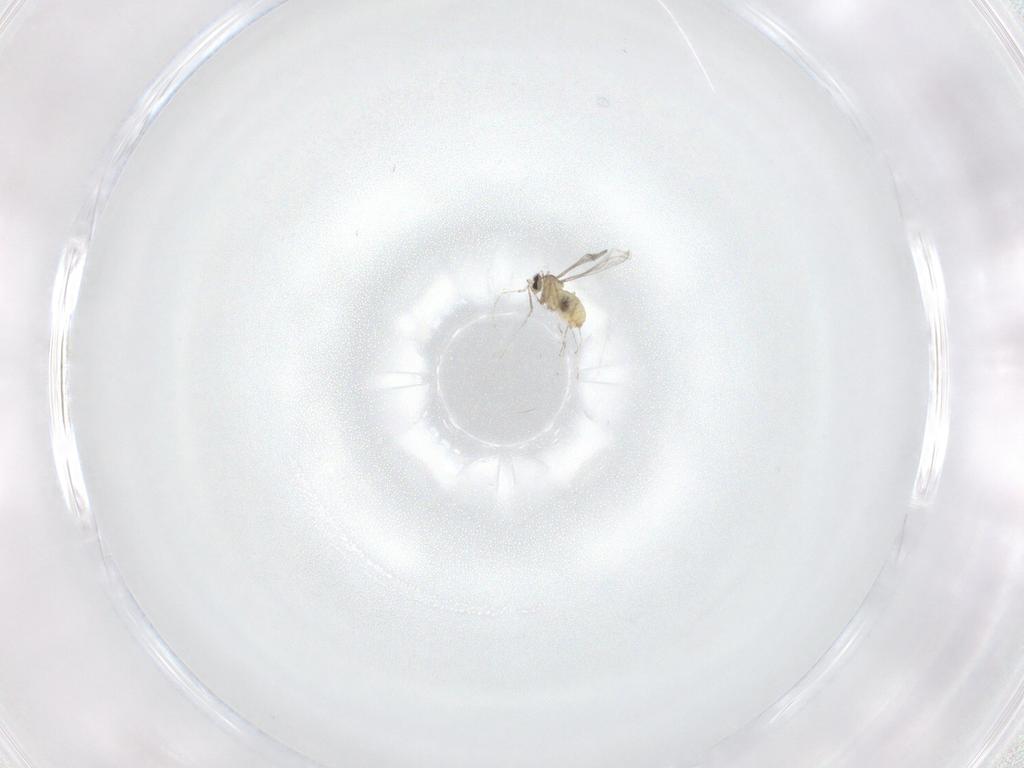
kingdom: Animalia
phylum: Arthropoda
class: Insecta
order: Diptera
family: Cecidomyiidae
